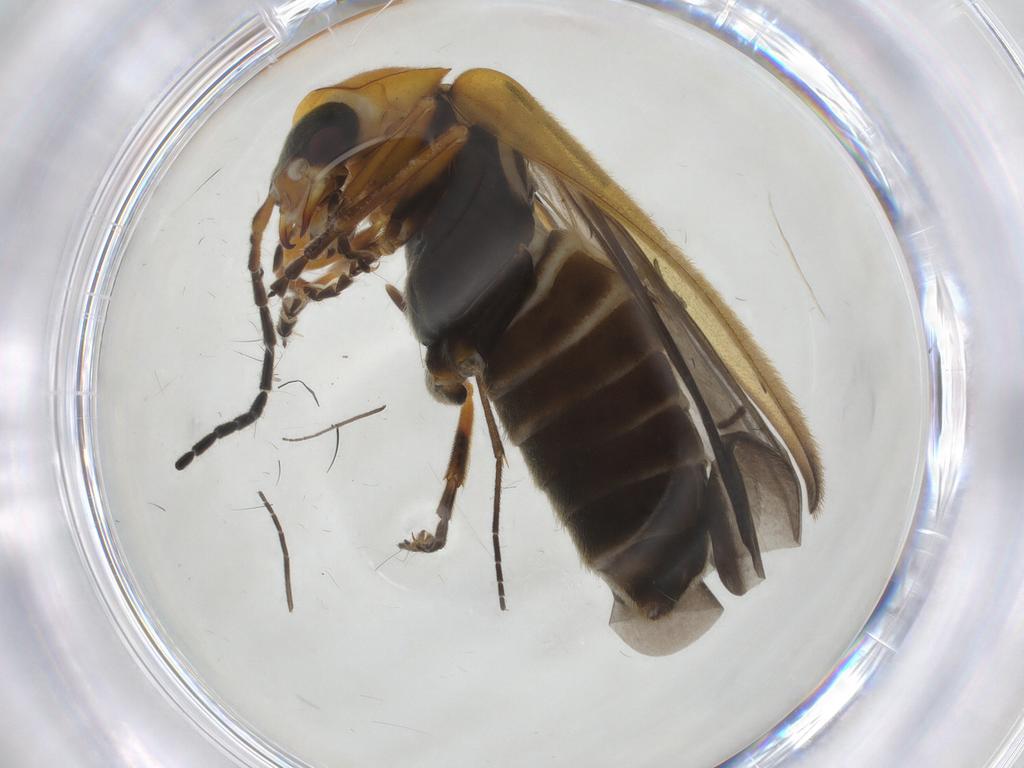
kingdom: Animalia
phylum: Arthropoda
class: Insecta
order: Coleoptera
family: Cantharidae
